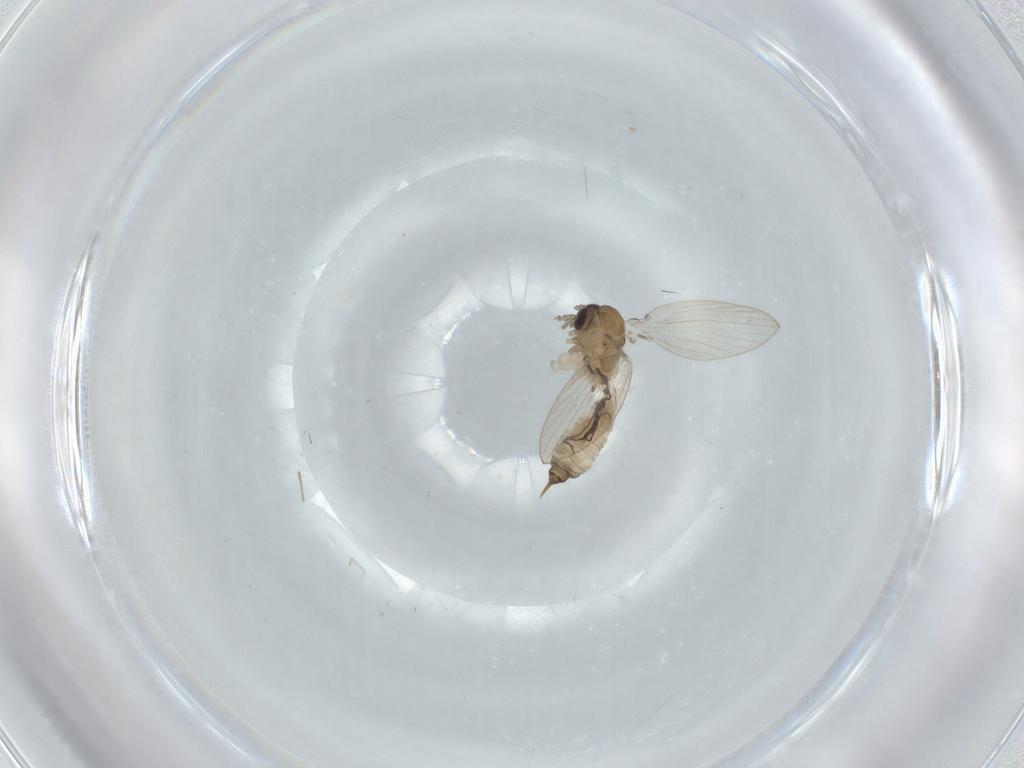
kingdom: Animalia
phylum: Arthropoda
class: Insecta
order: Diptera
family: Psychodidae
